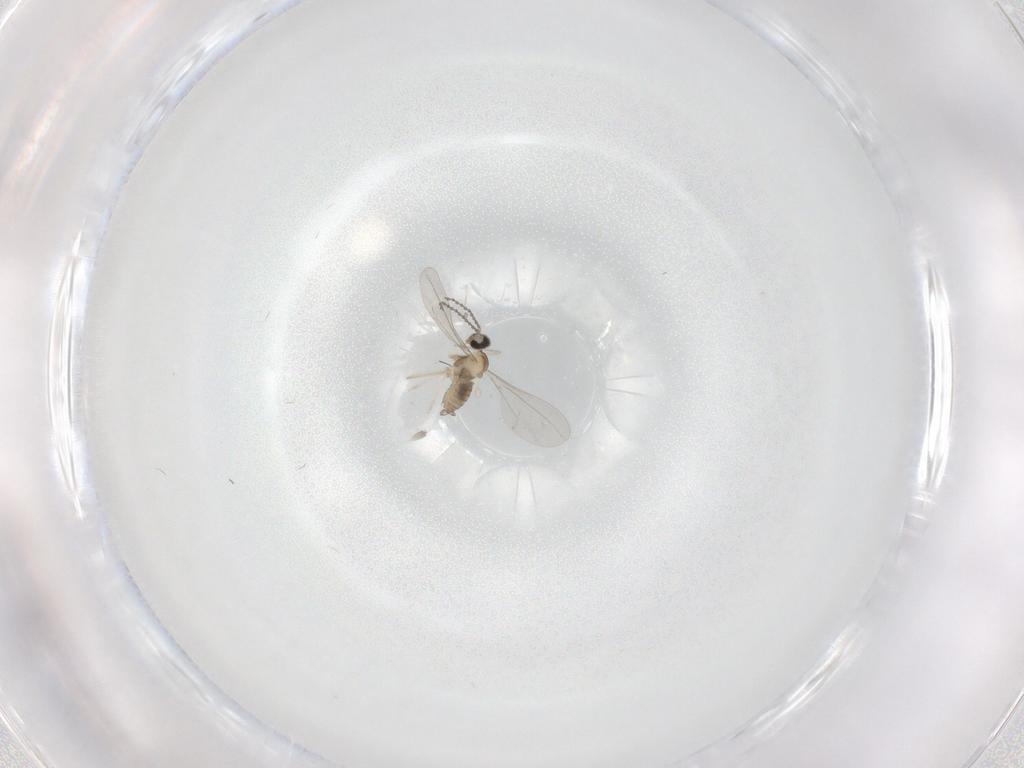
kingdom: Animalia
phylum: Arthropoda
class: Insecta
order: Diptera
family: Cecidomyiidae
